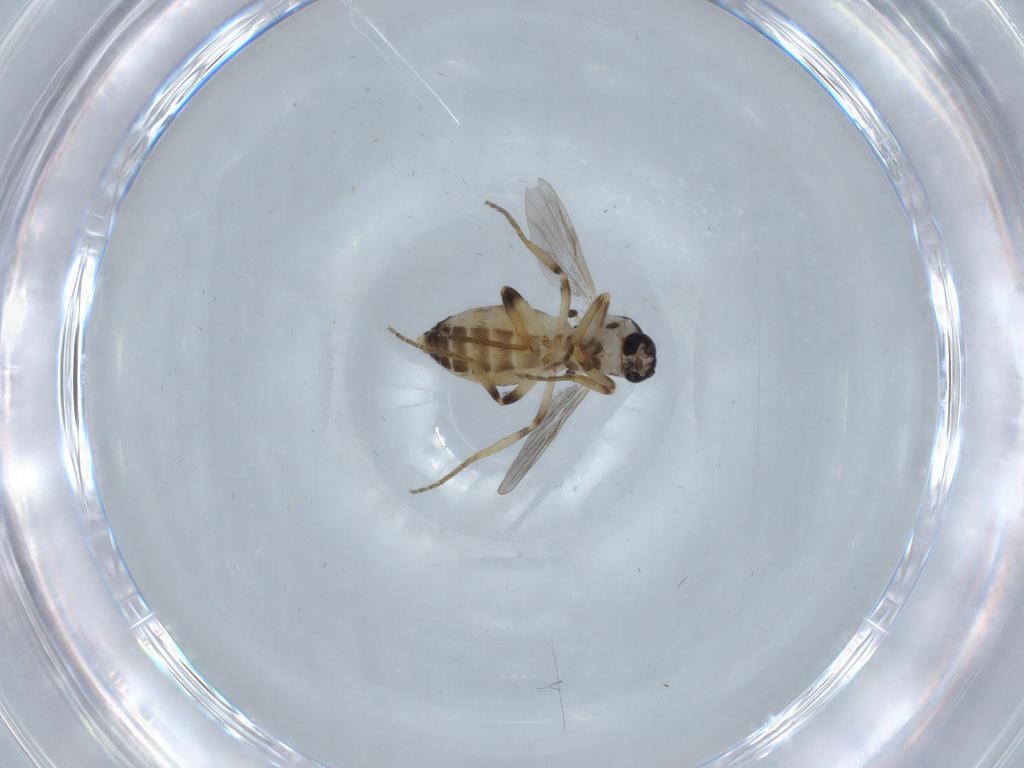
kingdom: Animalia
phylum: Arthropoda
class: Insecta
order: Diptera
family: Ceratopogonidae
